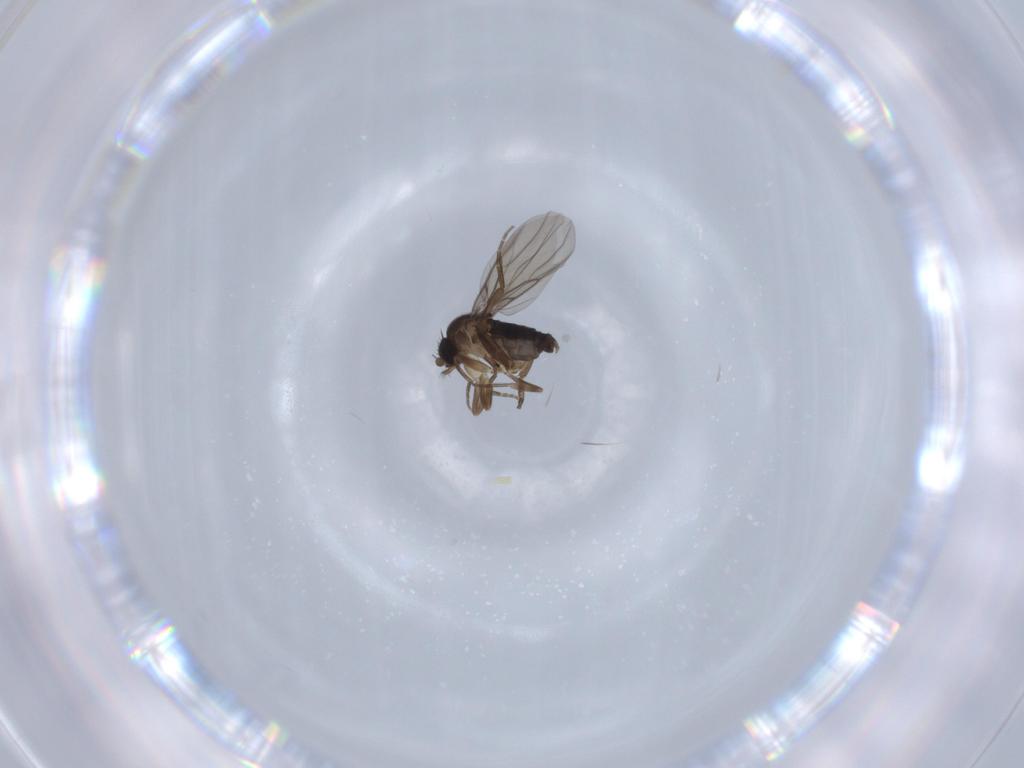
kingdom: Animalia
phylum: Arthropoda
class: Insecta
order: Diptera
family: Phoridae
